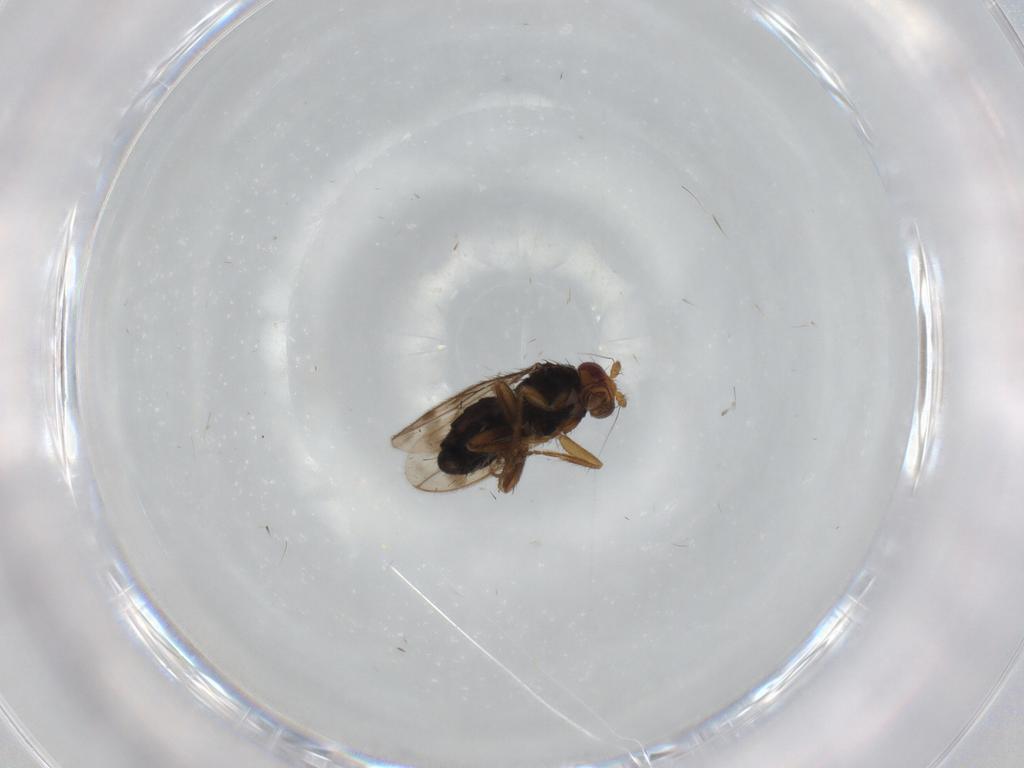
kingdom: Animalia
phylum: Arthropoda
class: Insecta
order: Diptera
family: Sphaeroceridae
